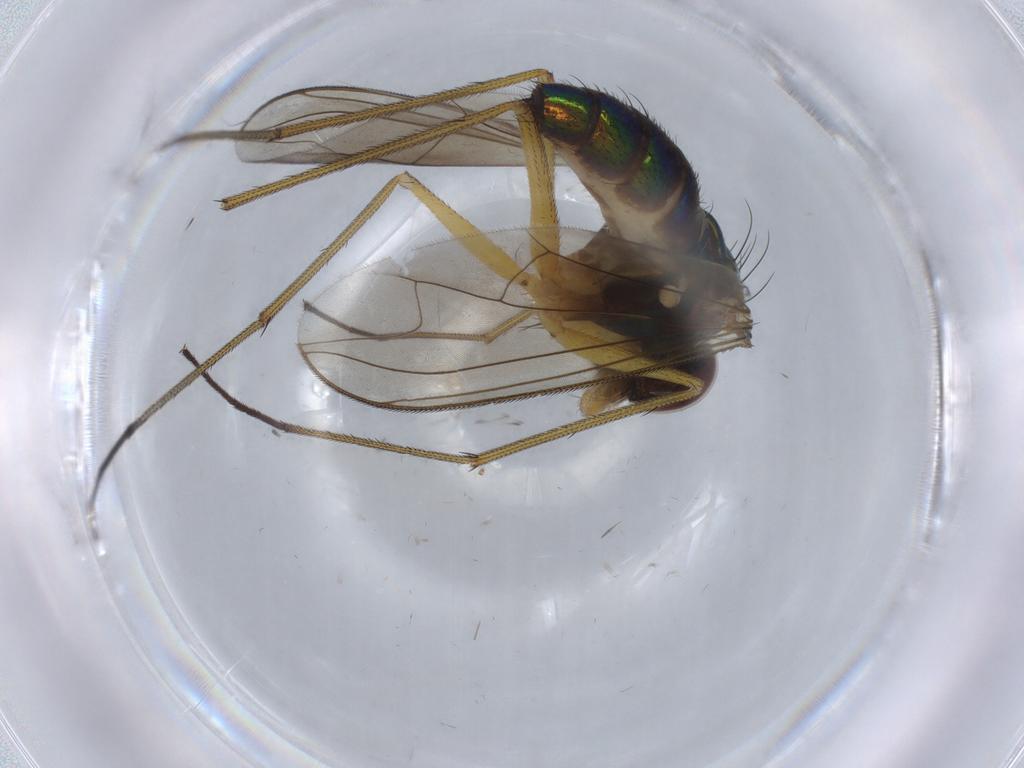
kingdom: Animalia
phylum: Arthropoda
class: Insecta
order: Diptera
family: Dolichopodidae
